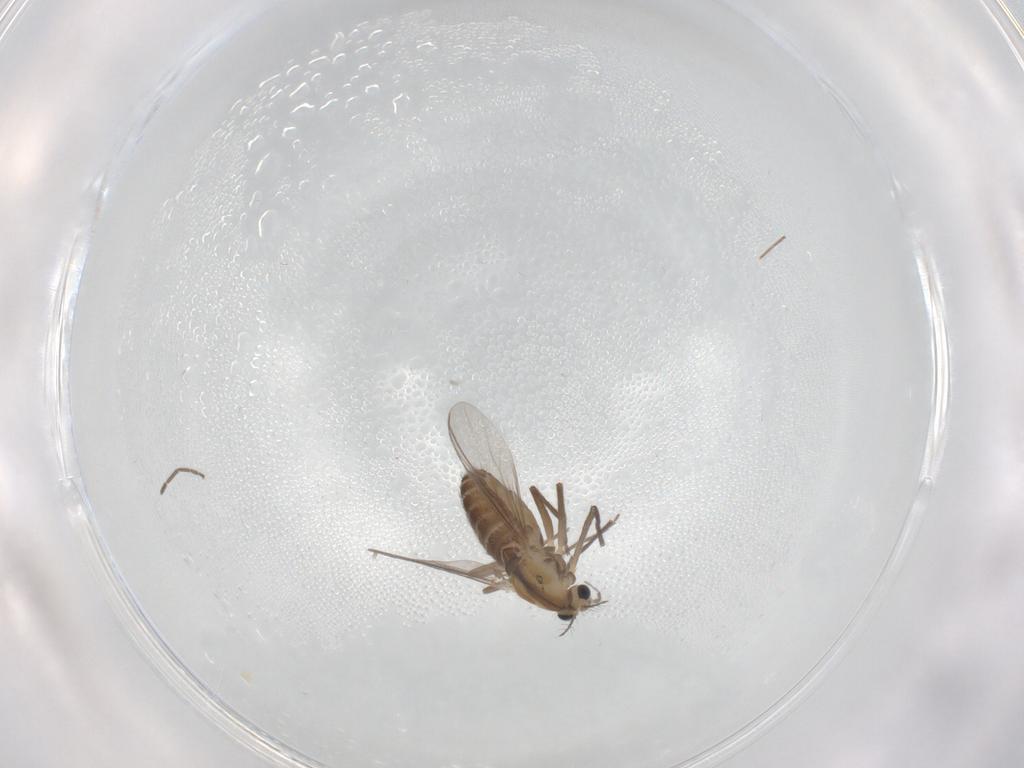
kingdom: Animalia
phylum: Arthropoda
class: Insecta
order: Diptera
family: Chironomidae
